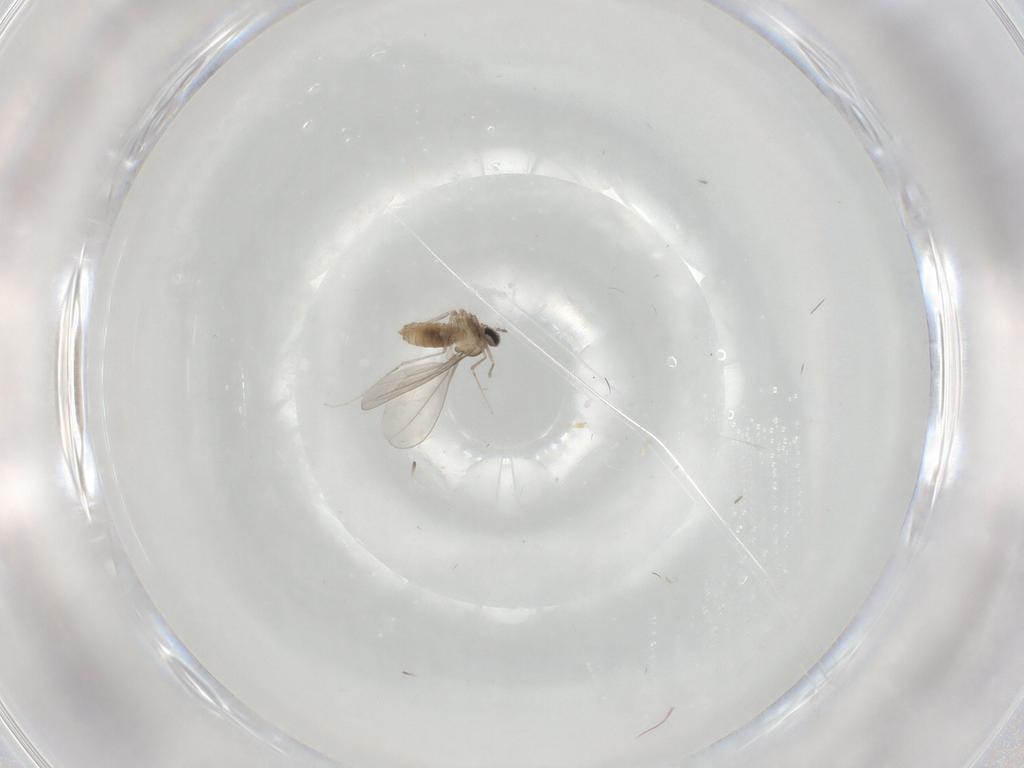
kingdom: Animalia
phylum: Arthropoda
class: Insecta
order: Diptera
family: Cecidomyiidae
